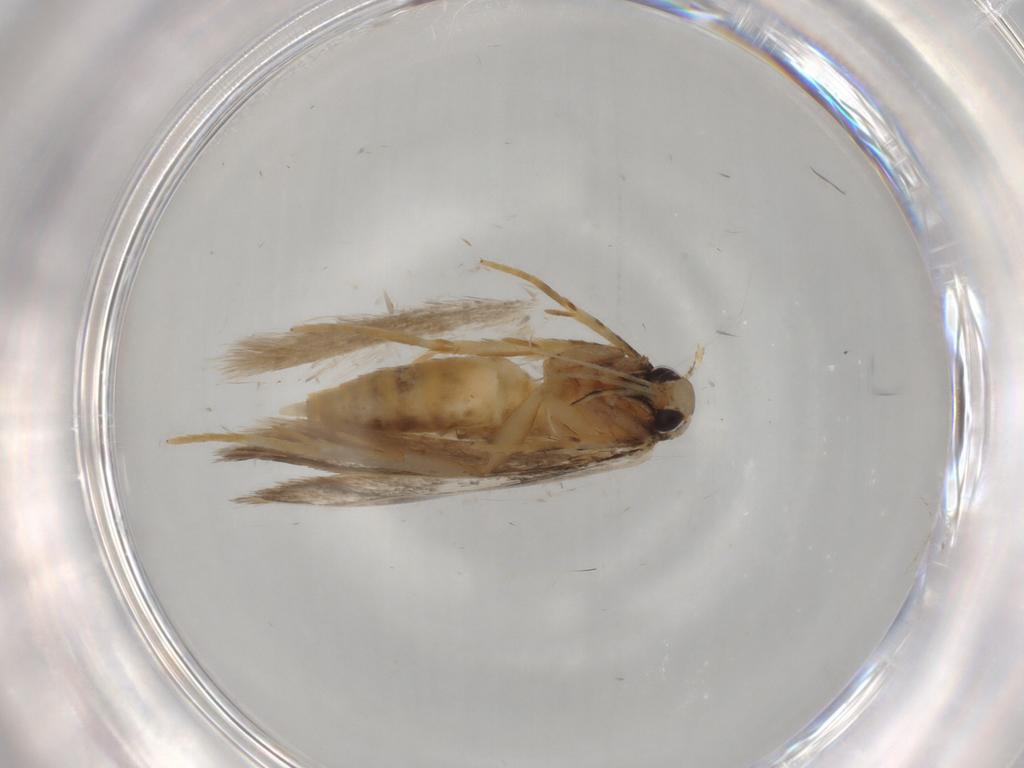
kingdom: Animalia
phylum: Arthropoda
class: Insecta
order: Lepidoptera
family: Autostichidae
